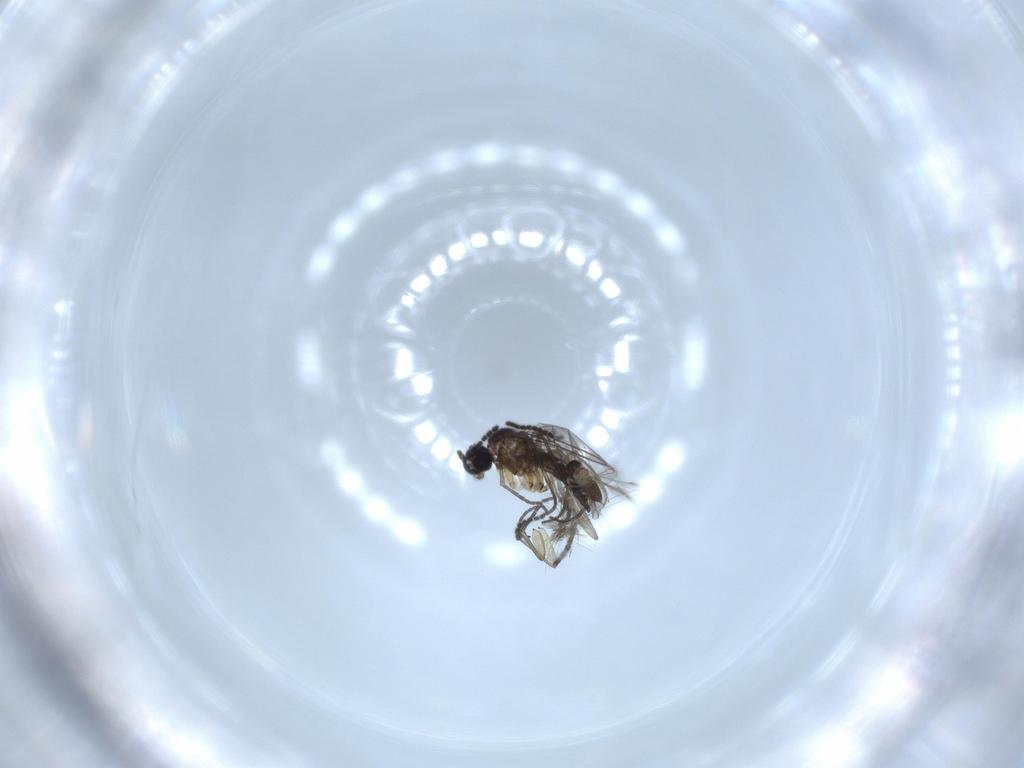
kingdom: Animalia
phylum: Arthropoda
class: Insecta
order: Diptera
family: Sciaridae
